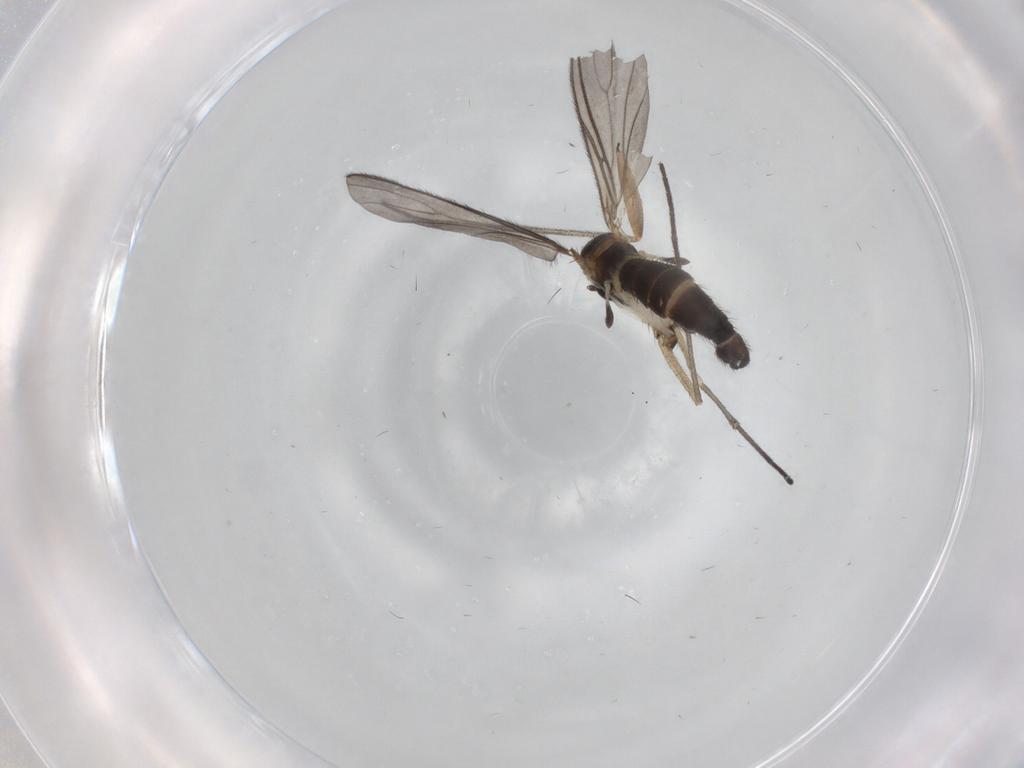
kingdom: Animalia
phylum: Arthropoda
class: Insecta
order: Diptera
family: Sciaridae
